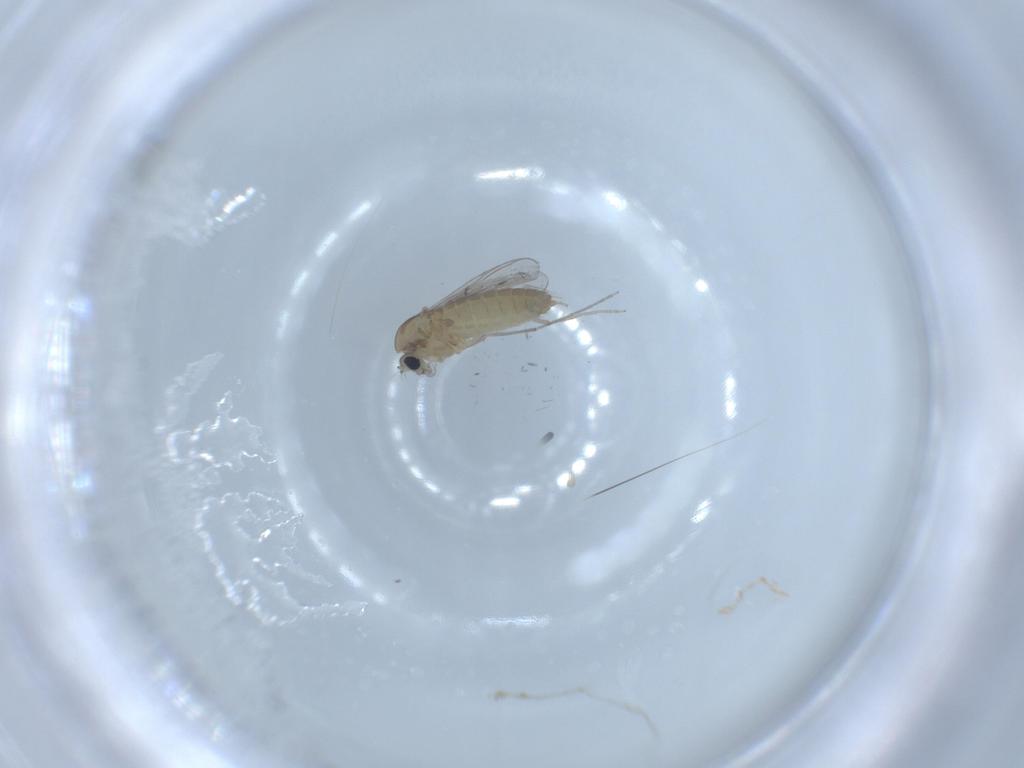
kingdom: Animalia
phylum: Arthropoda
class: Insecta
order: Diptera
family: Chironomidae
